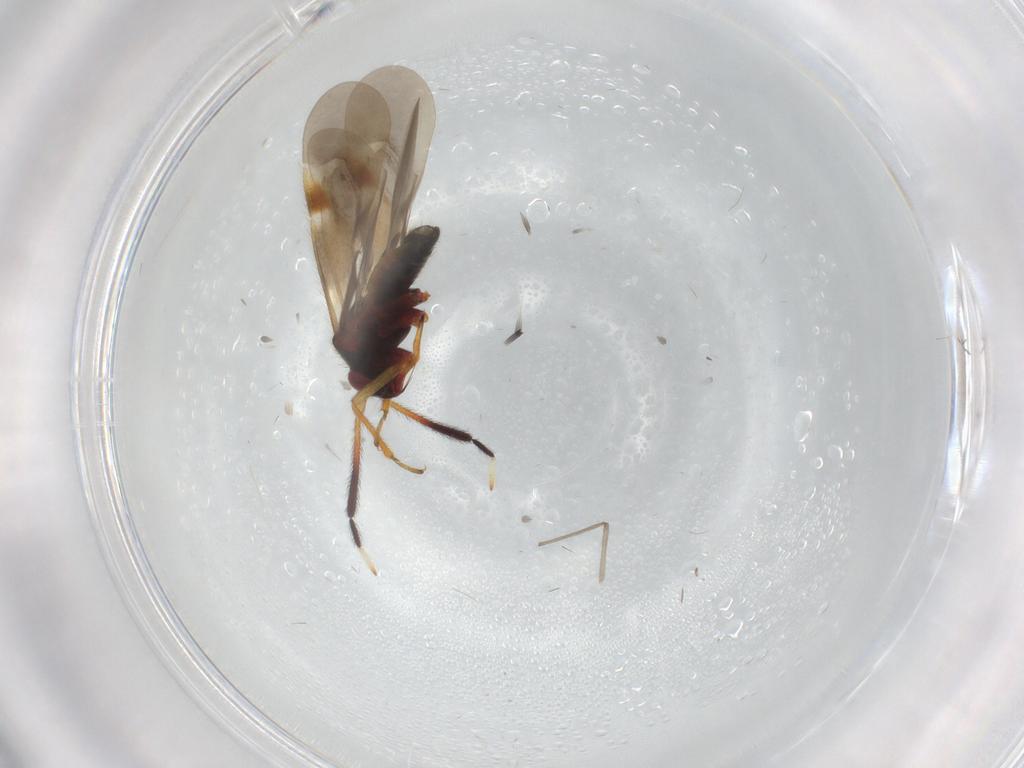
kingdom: Animalia
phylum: Arthropoda
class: Insecta
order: Hemiptera
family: Miridae
